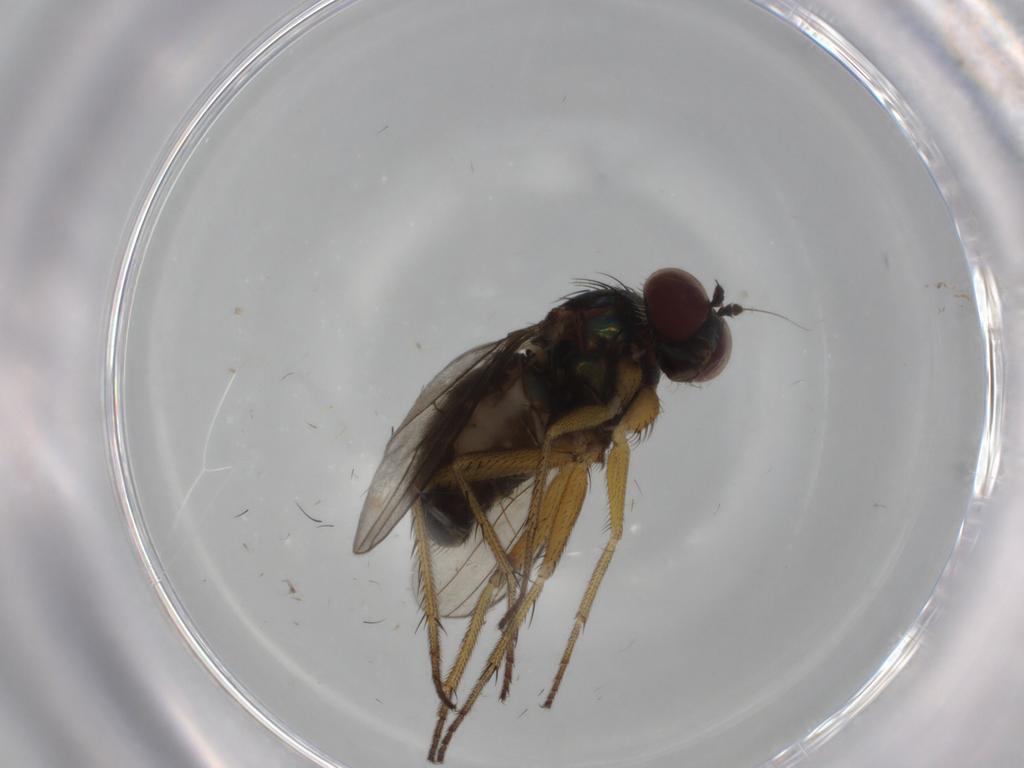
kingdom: Animalia
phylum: Arthropoda
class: Insecta
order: Diptera
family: Dolichopodidae
